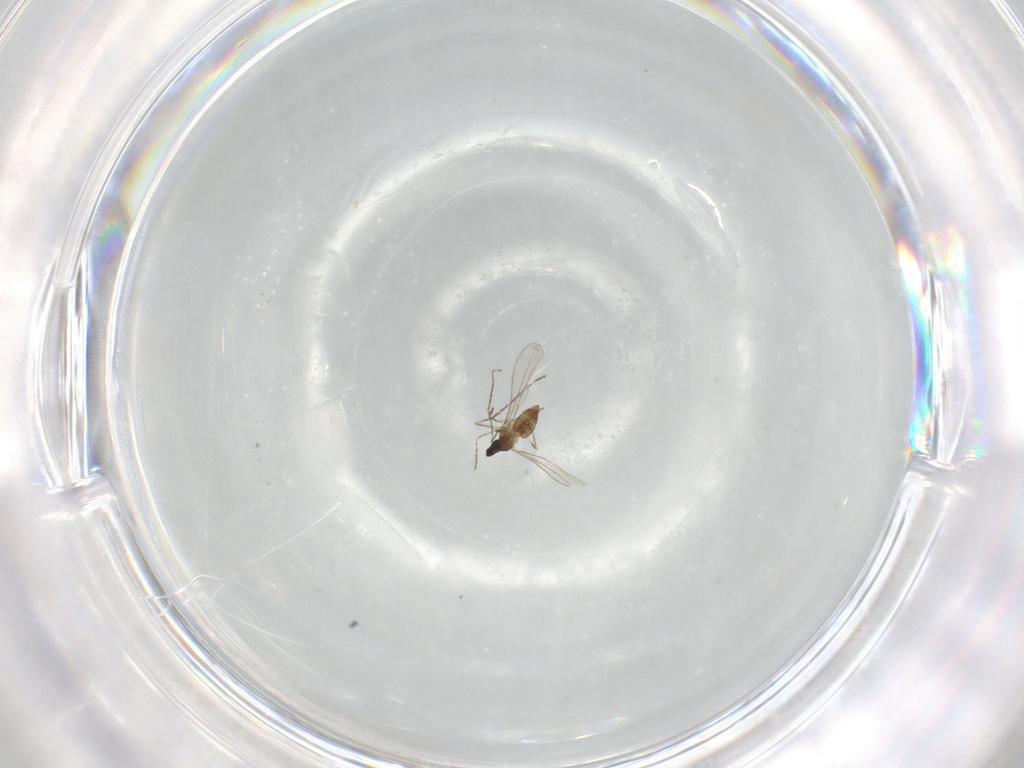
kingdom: Animalia
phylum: Arthropoda
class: Insecta
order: Diptera
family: Cecidomyiidae
